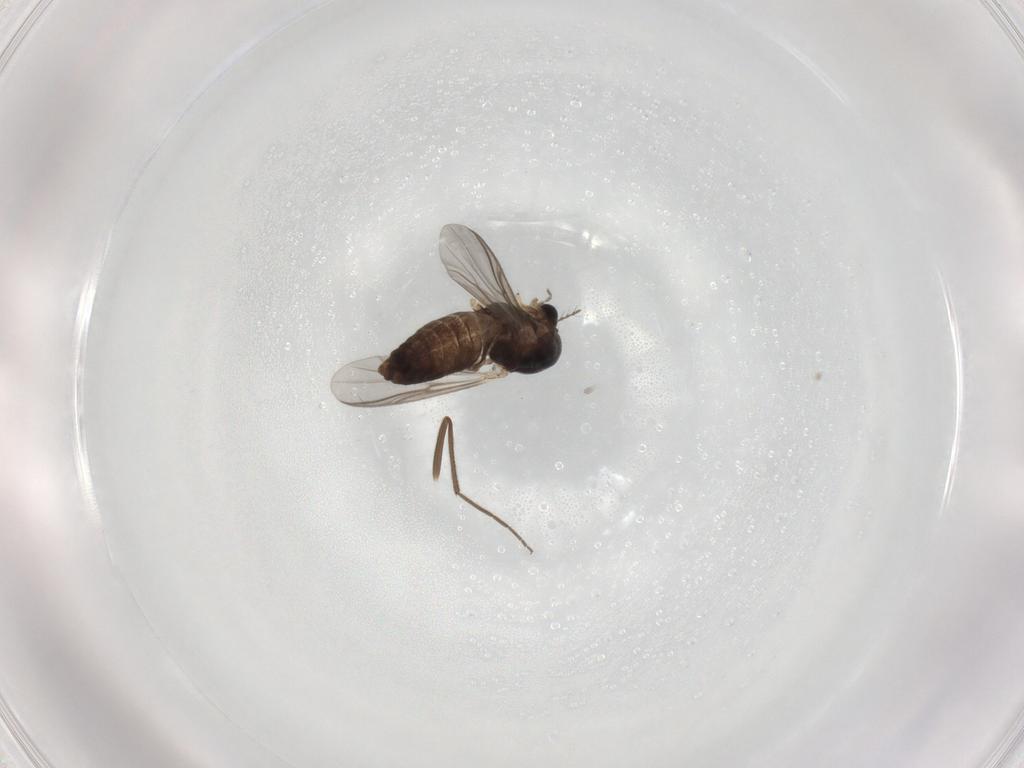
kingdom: Animalia
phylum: Arthropoda
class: Insecta
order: Diptera
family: Chironomidae
